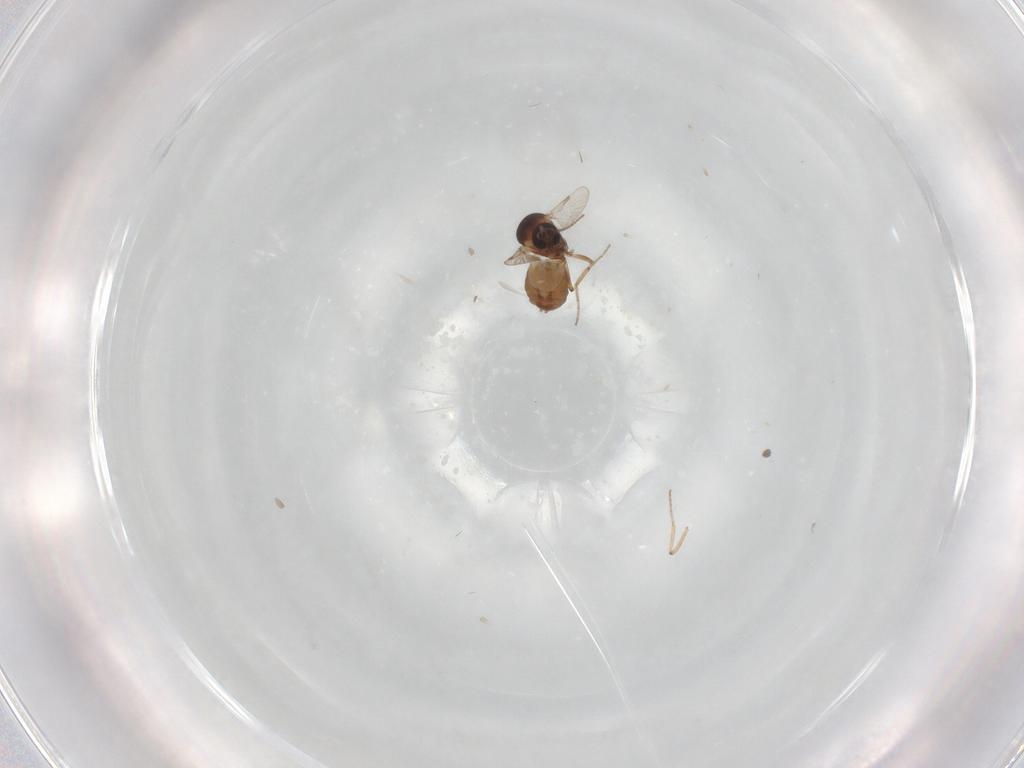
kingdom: Animalia
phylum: Arthropoda
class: Insecta
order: Diptera
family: Ceratopogonidae
